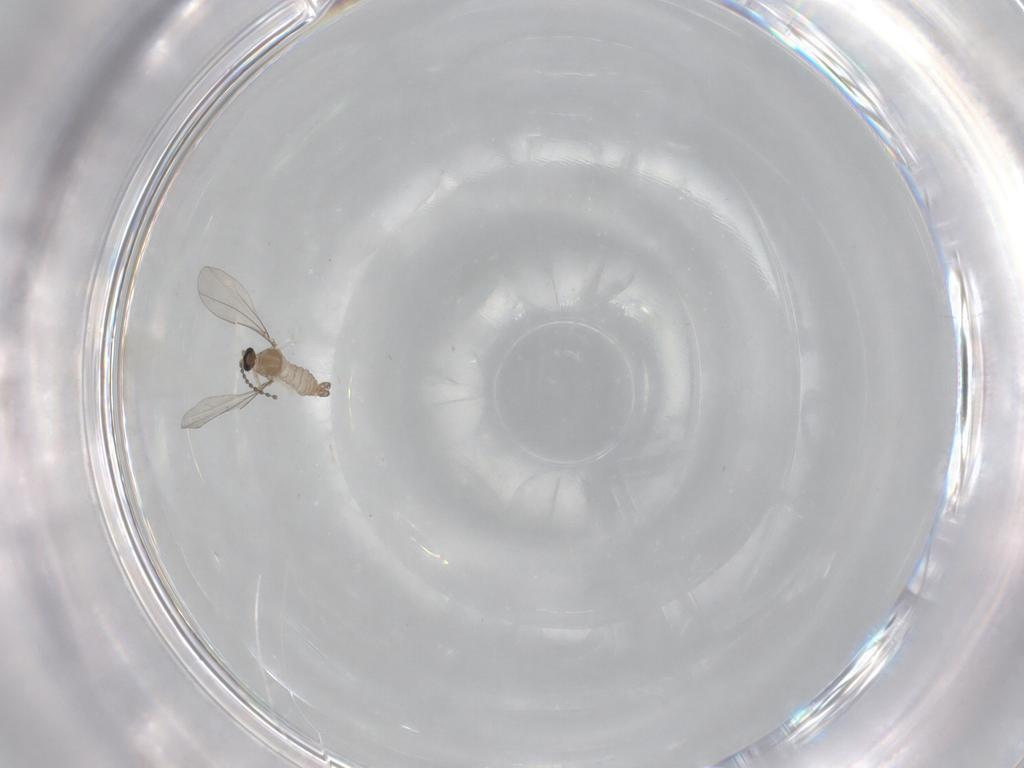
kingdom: Animalia
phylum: Arthropoda
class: Insecta
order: Diptera
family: Cecidomyiidae
